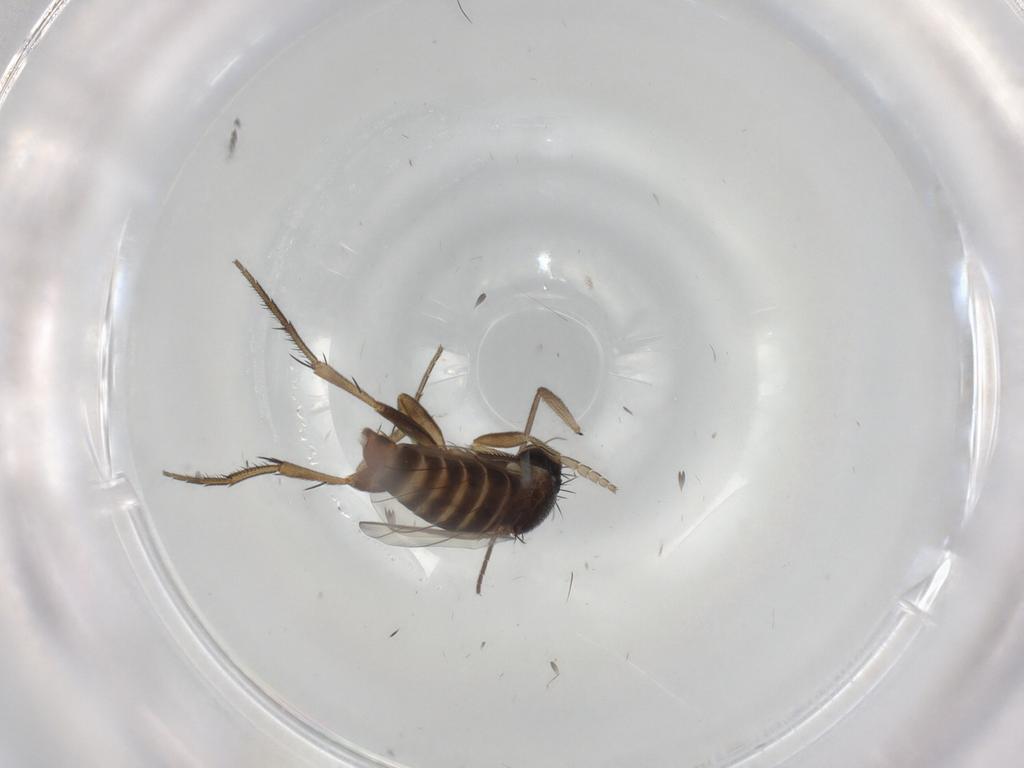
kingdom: Animalia
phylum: Arthropoda
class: Insecta
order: Diptera
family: Phoridae
